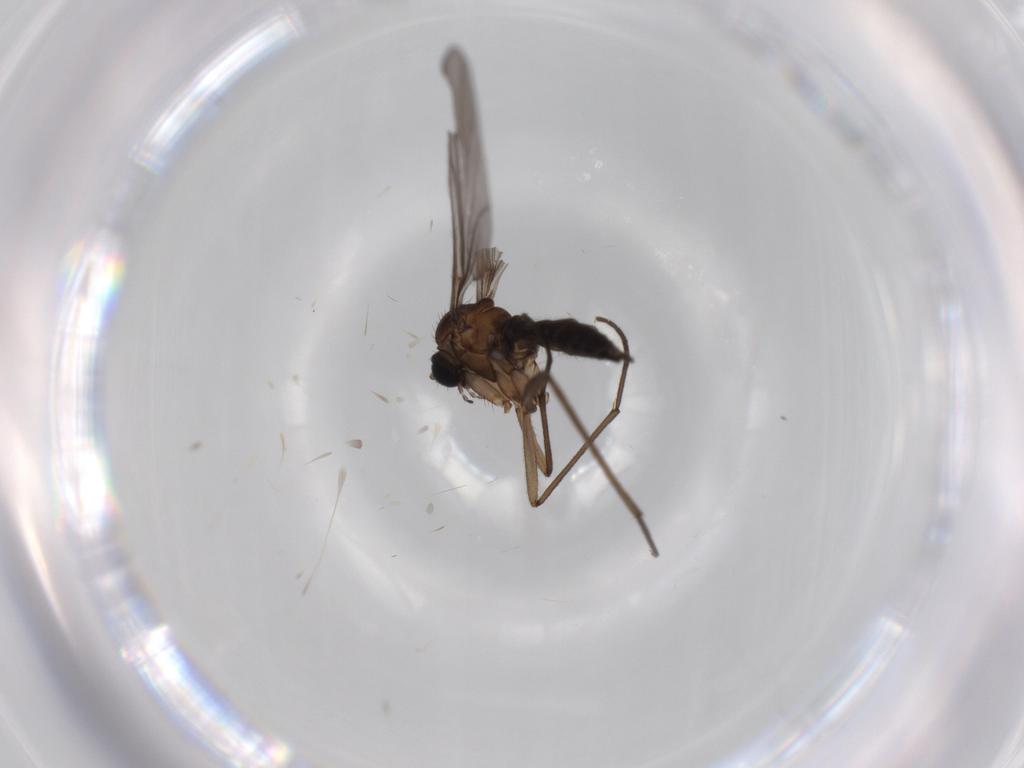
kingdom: Animalia
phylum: Arthropoda
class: Insecta
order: Diptera
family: Sciaridae
